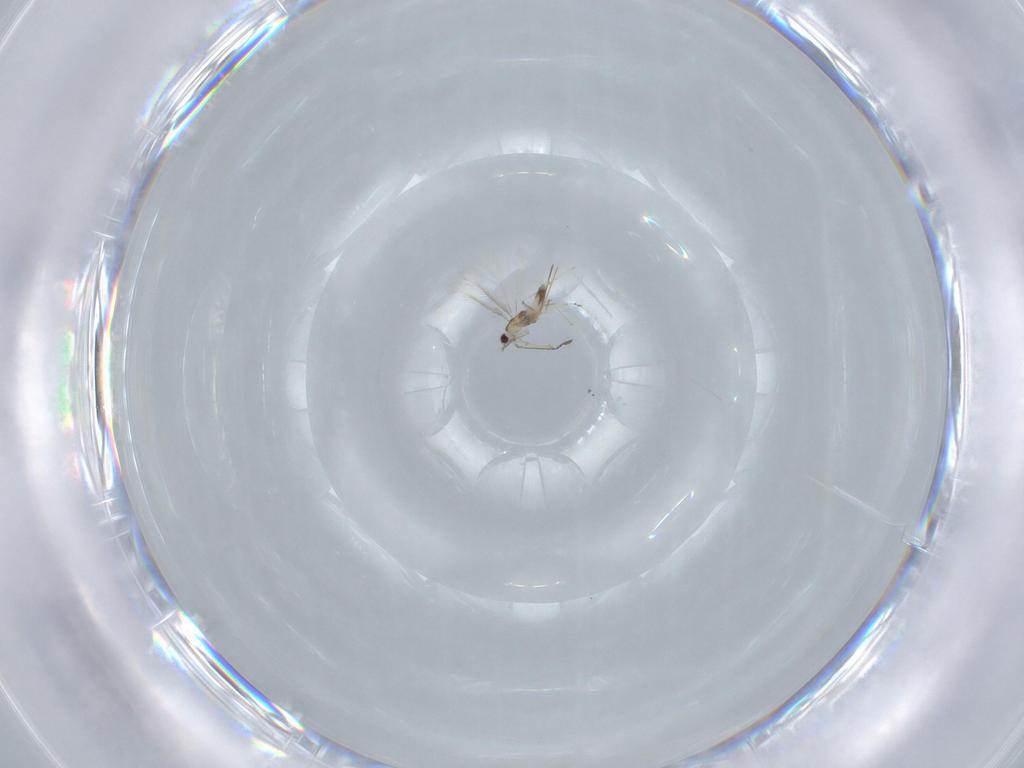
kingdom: Animalia
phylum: Arthropoda
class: Insecta
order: Hymenoptera
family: Mymaridae
